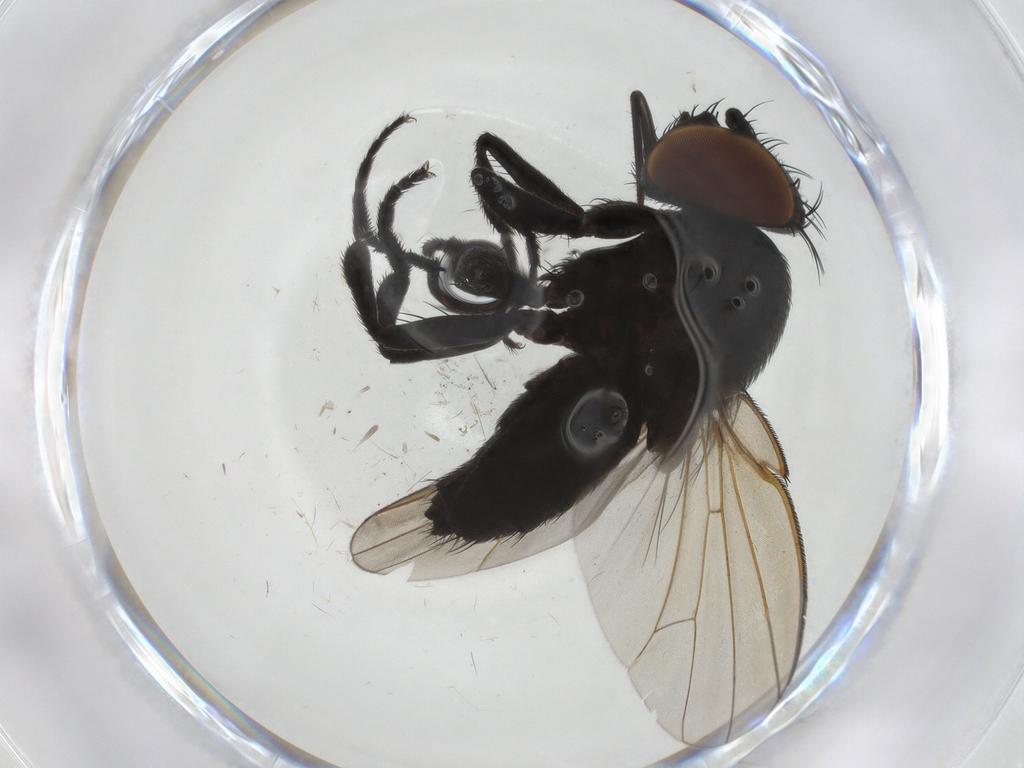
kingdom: Animalia
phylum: Arthropoda
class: Insecta
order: Diptera
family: Milichiidae
